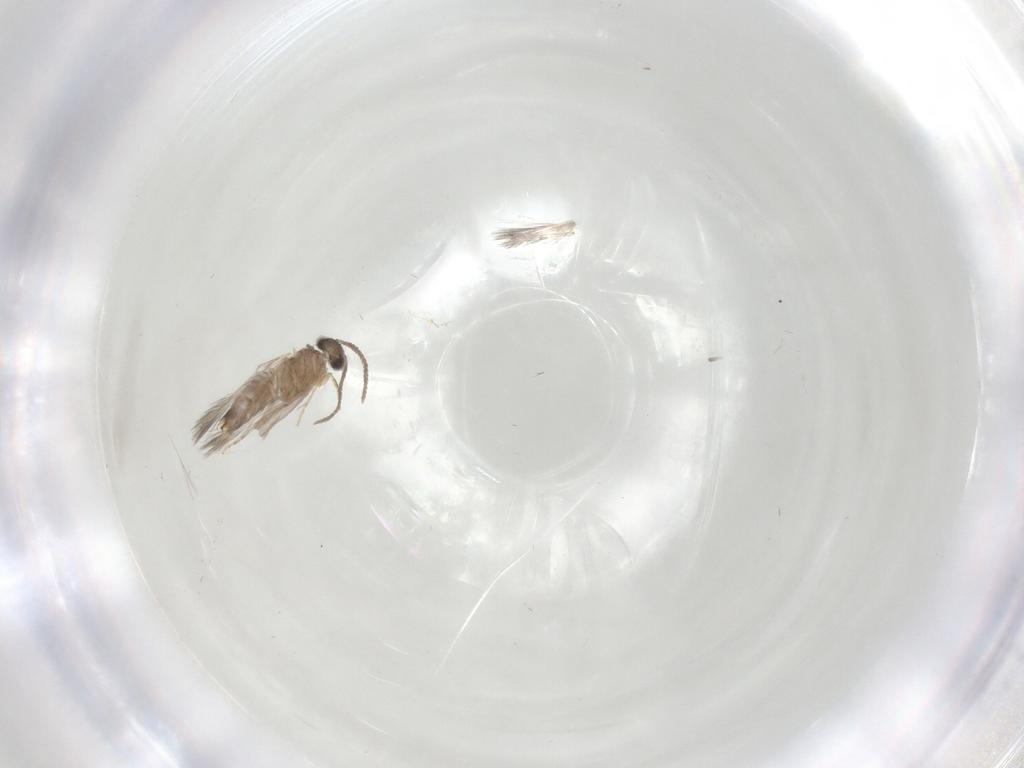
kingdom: Animalia
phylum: Arthropoda
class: Insecta
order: Trichoptera
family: Hydroptilidae
